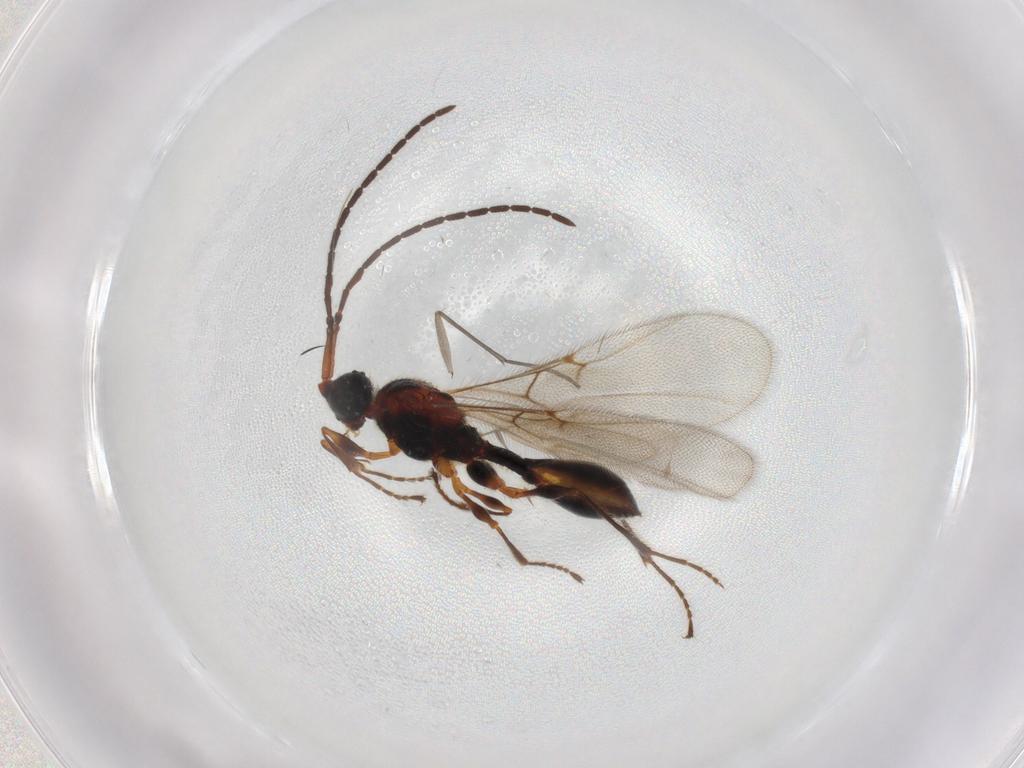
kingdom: Animalia
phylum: Arthropoda
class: Insecta
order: Hymenoptera
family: Diapriidae
